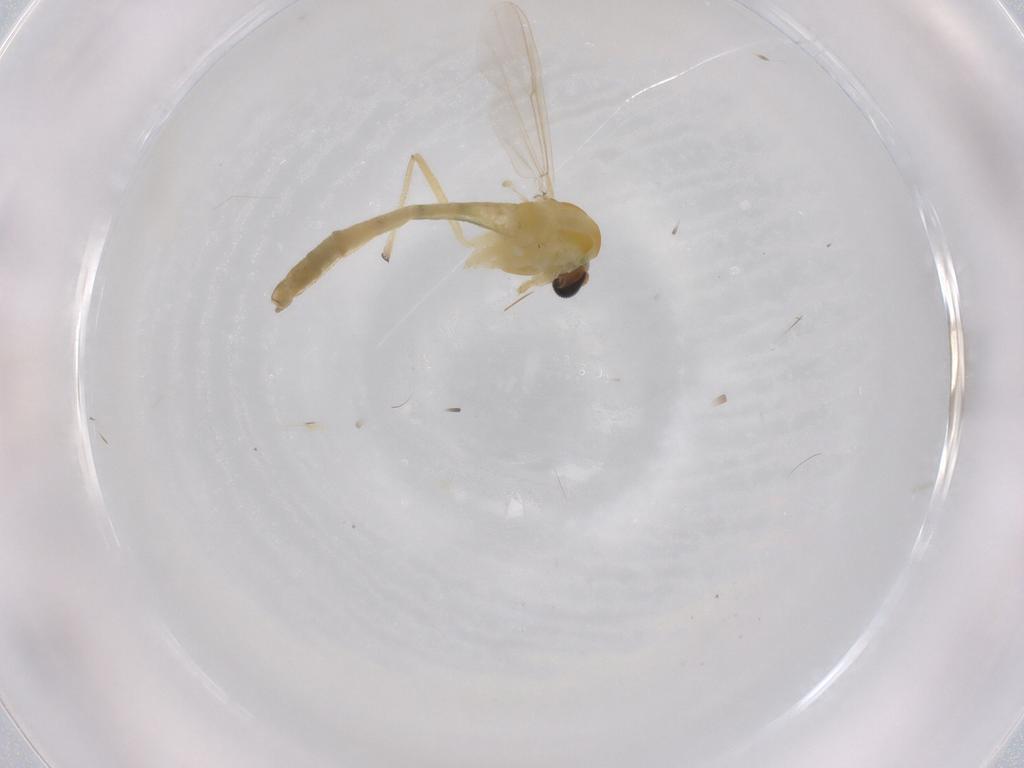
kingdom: Animalia
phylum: Arthropoda
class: Insecta
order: Diptera
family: Chironomidae
